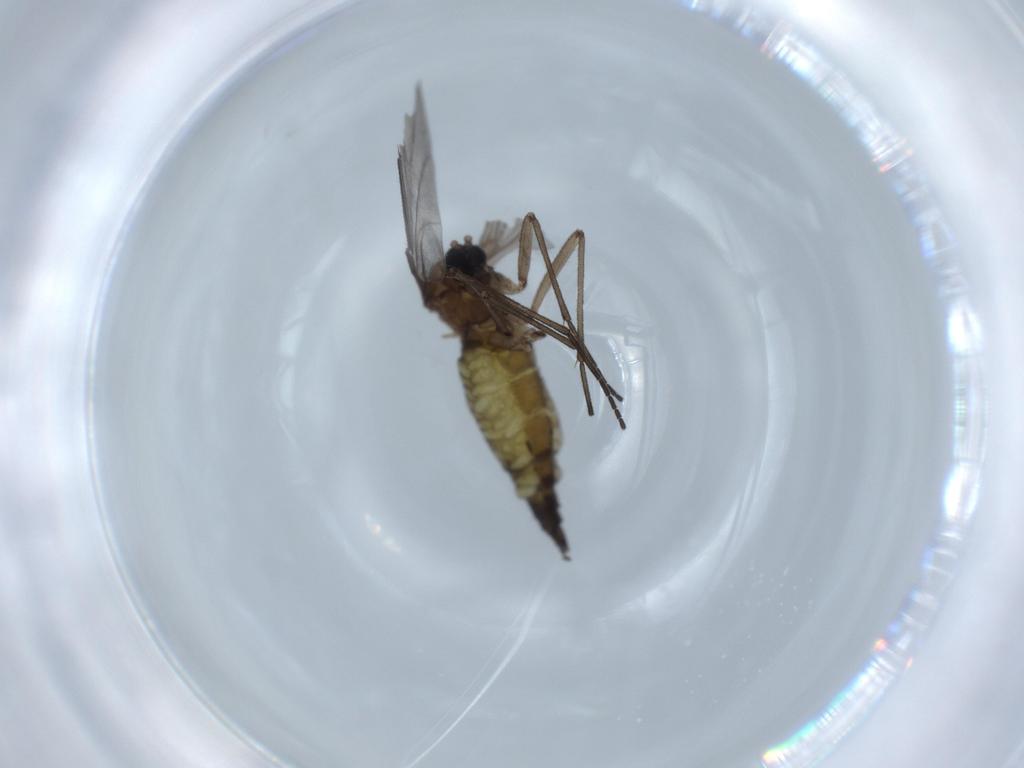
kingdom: Animalia
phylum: Arthropoda
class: Insecta
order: Diptera
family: Sciaridae
